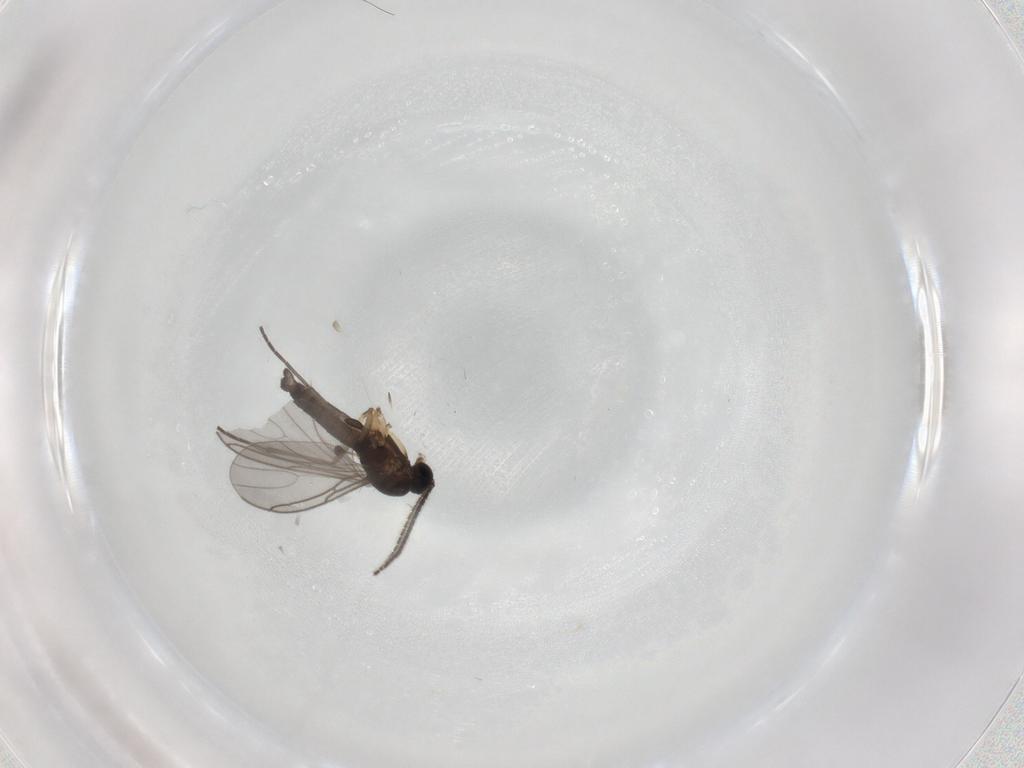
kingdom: Animalia
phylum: Arthropoda
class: Insecta
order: Diptera
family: Sciaridae
